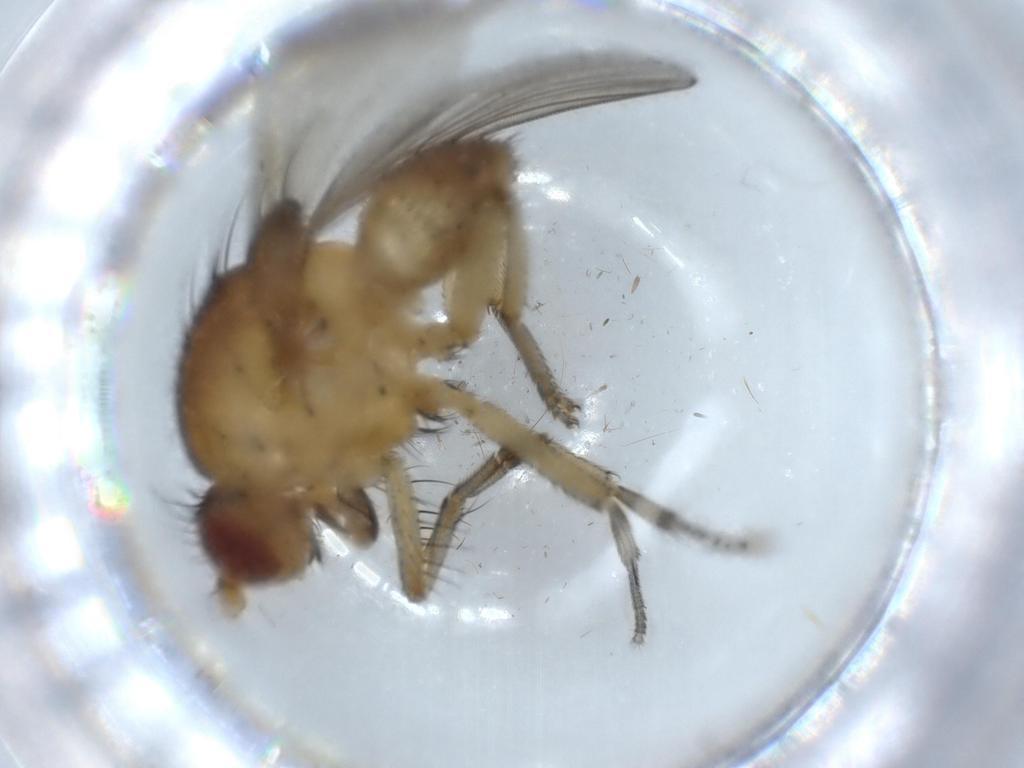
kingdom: Animalia
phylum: Arthropoda
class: Insecta
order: Diptera
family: Cecidomyiidae
